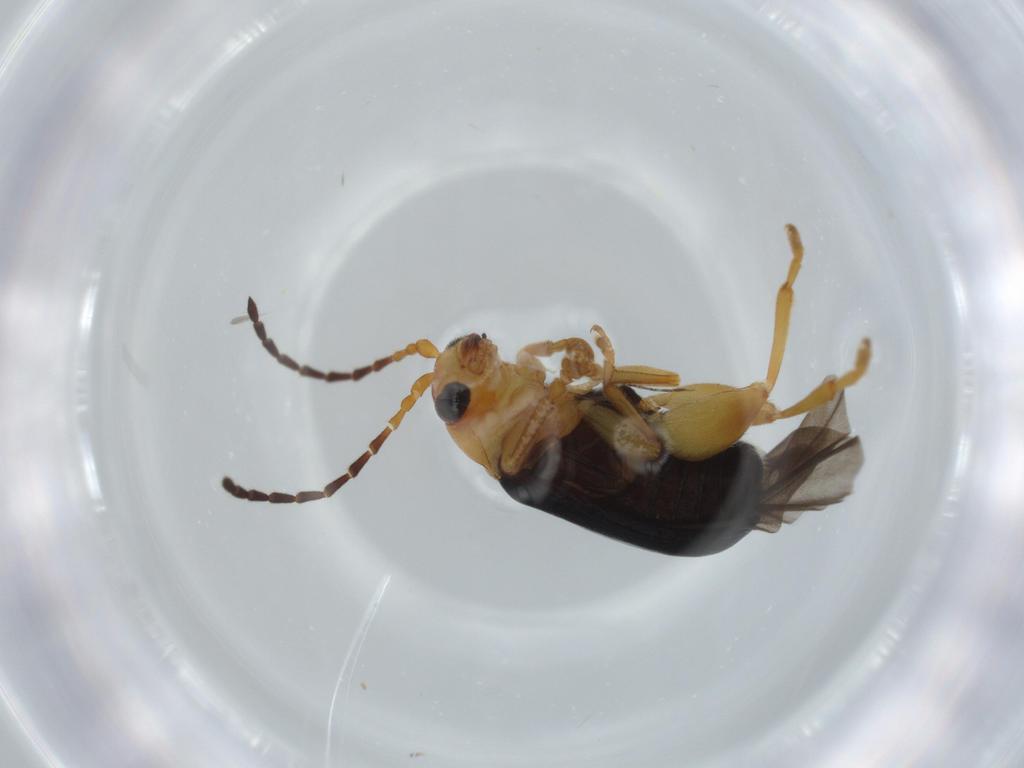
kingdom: Animalia
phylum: Arthropoda
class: Insecta
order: Coleoptera
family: Chrysomelidae
